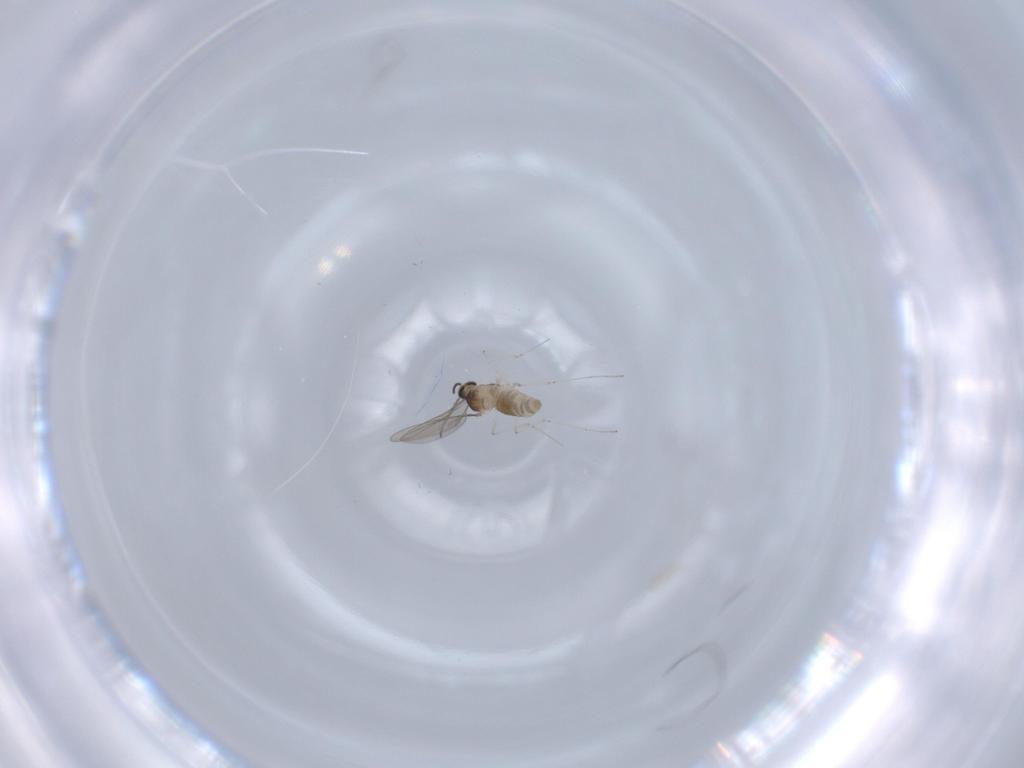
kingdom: Animalia
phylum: Arthropoda
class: Insecta
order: Diptera
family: Cecidomyiidae
